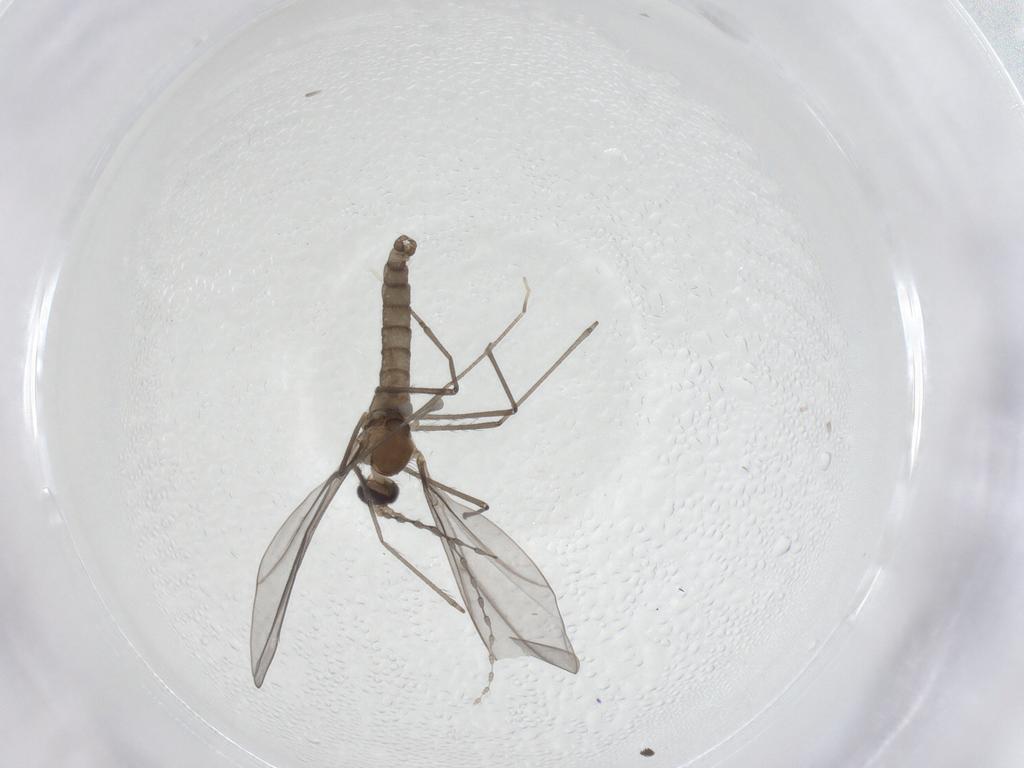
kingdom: Animalia
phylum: Arthropoda
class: Insecta
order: Diptera
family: Cecidomyiidae
